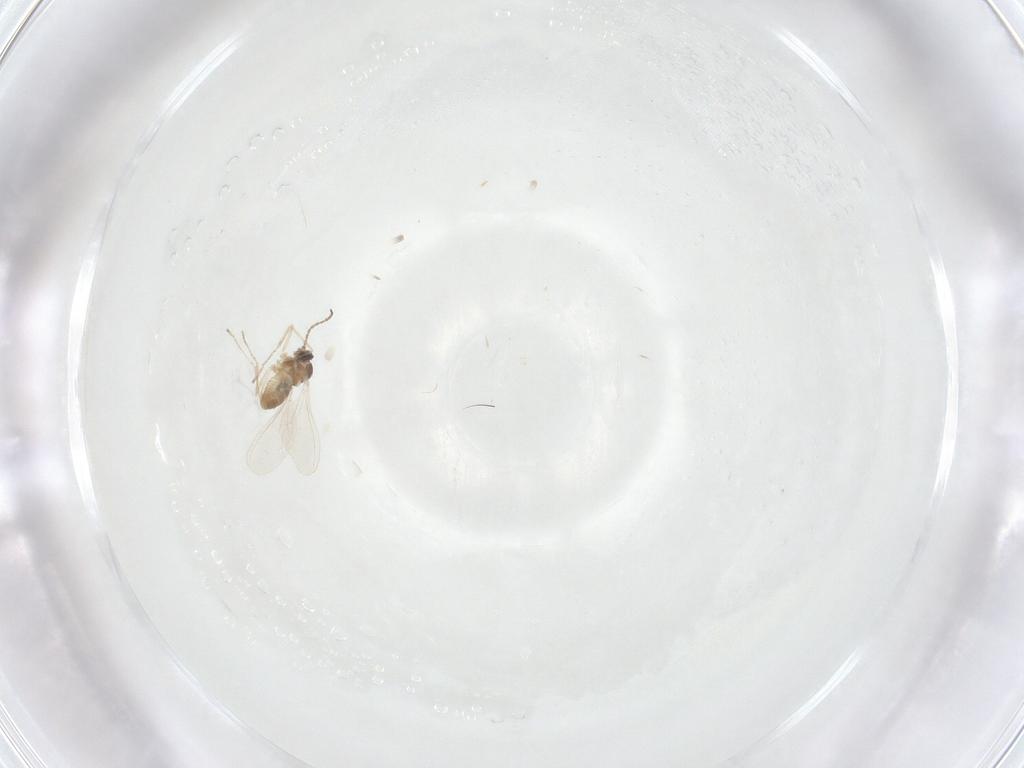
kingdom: Animalia
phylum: Arthropoda
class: Insecta
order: Diptera
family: Cecidomyiidae
